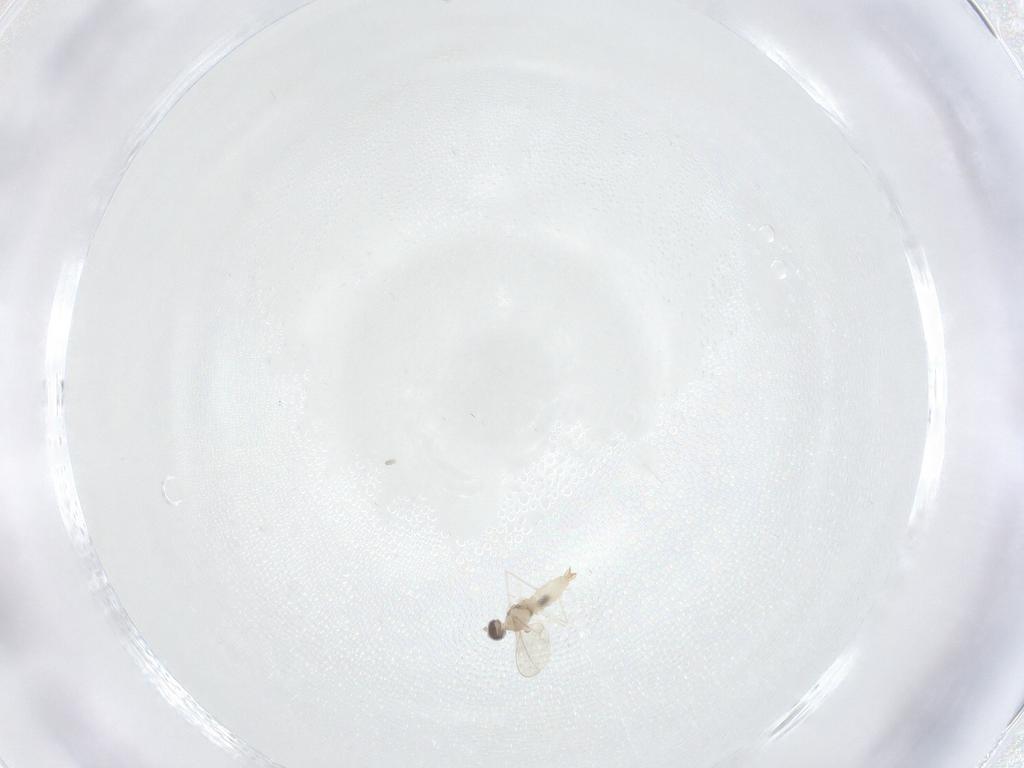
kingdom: Animalia
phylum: Arthropoda
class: Insecta
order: Diptera
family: Cecidomyiidae
